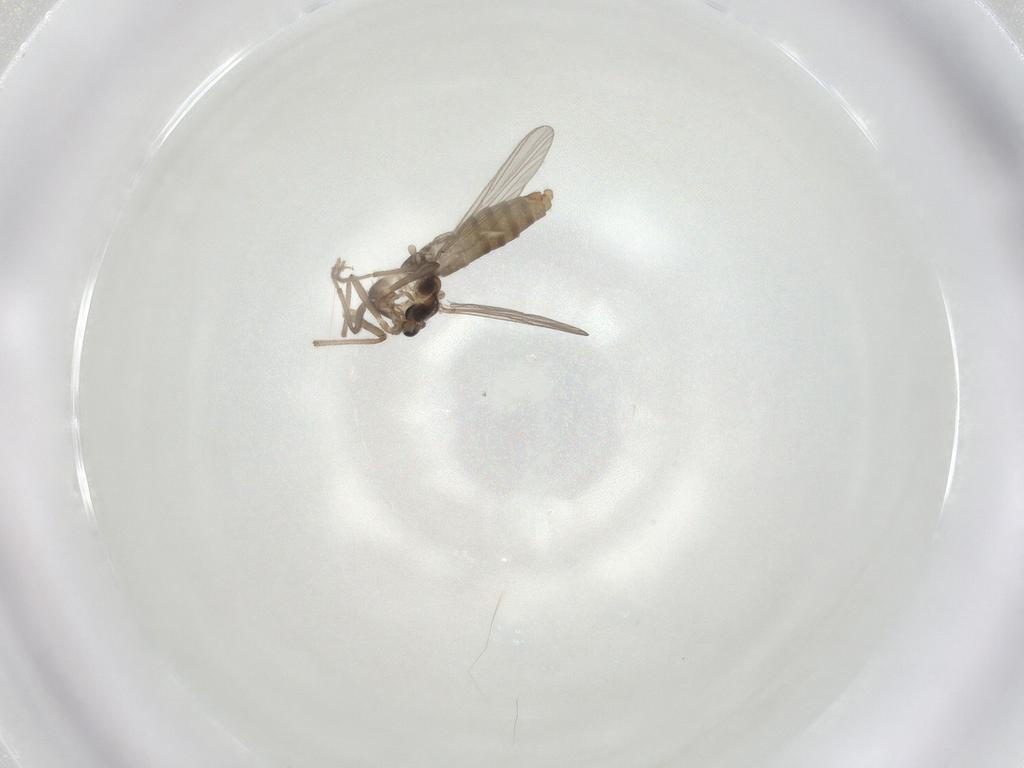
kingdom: Animalia
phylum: Arthropoda
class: Insecta
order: Diptera
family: Chironomidae
